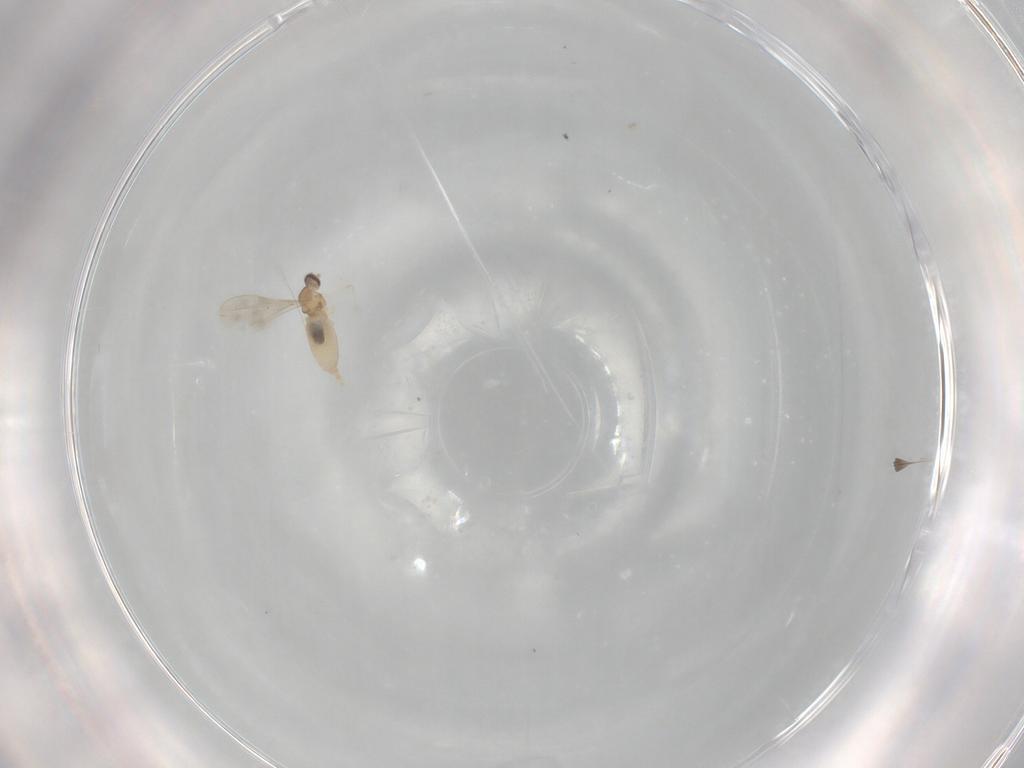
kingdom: Animalia
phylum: Arthropoda
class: Insecta
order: Diptera
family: Cecidomyiidae
